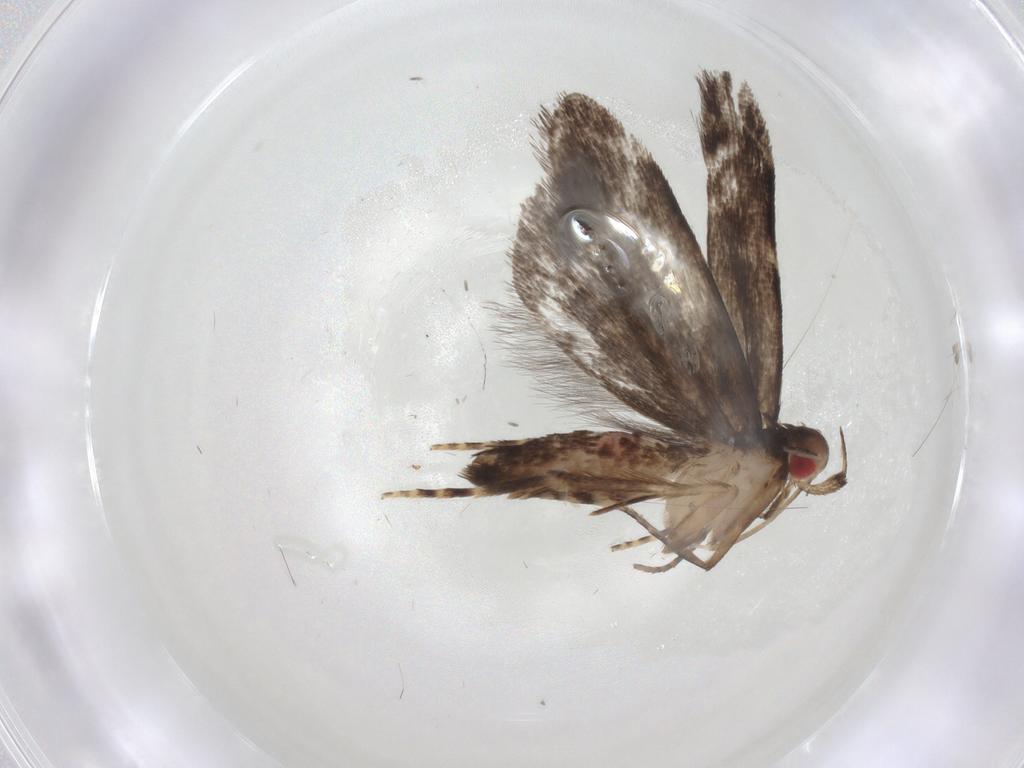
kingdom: Animalia
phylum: Arthropoda
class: Insecta
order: Lepidoptera
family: Gelechiidae
